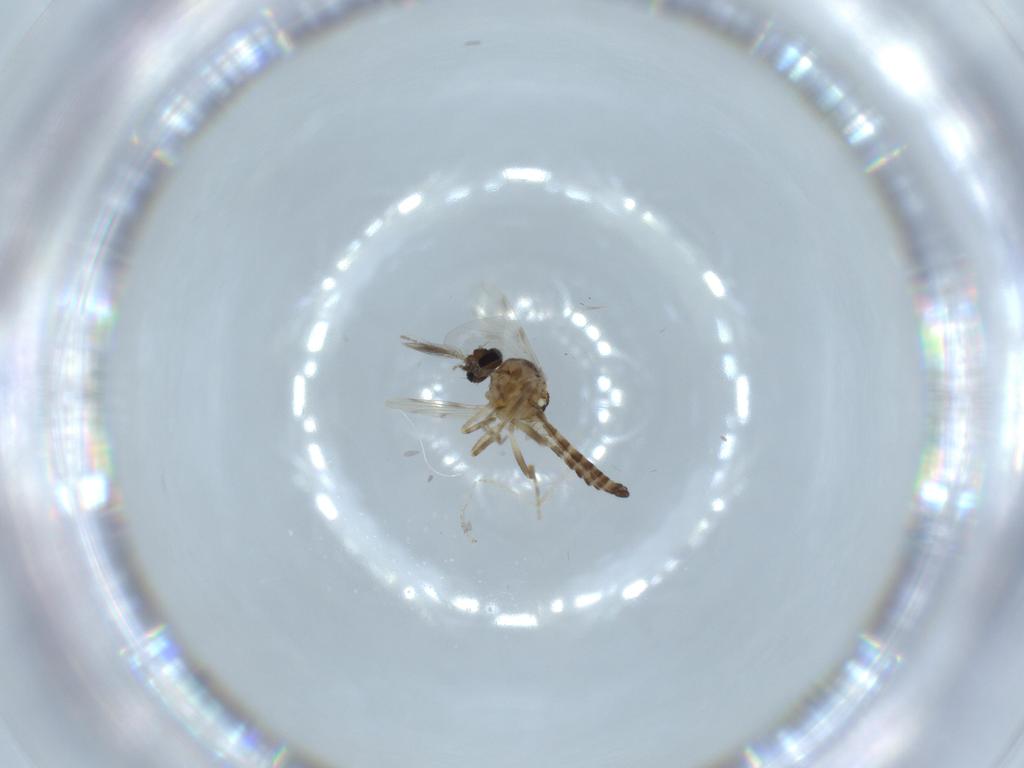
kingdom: Animalia
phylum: Arthropoda
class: Insecta
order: Diptera
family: Ceratopogonidae
